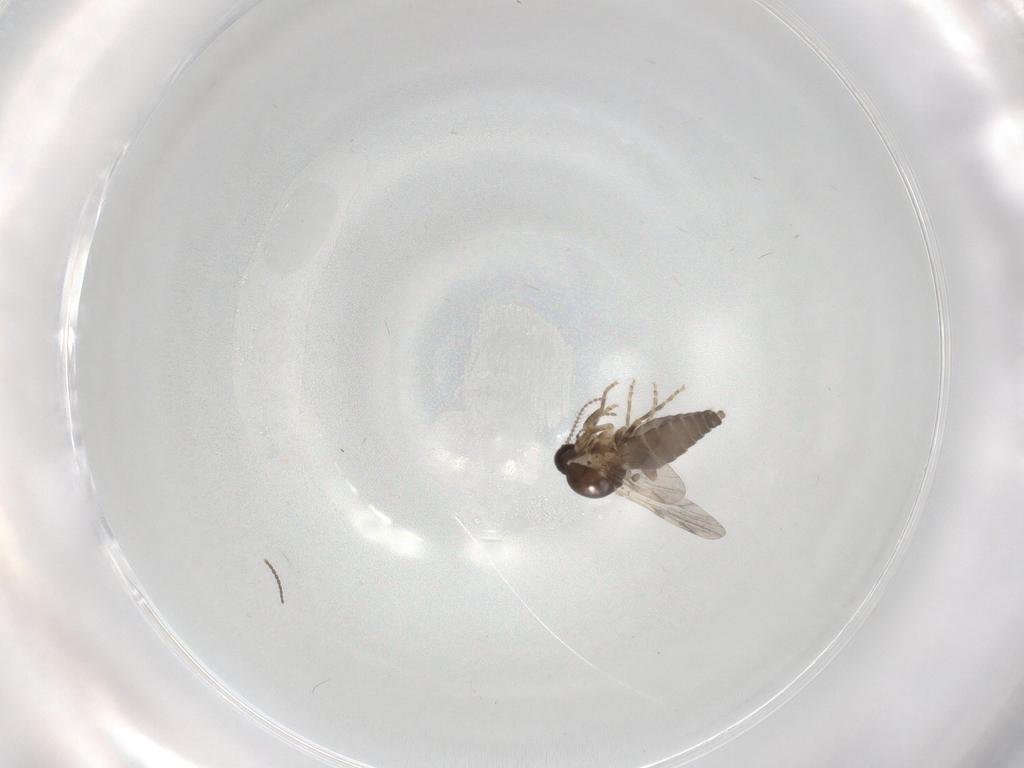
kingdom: Animalia
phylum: Arthropoda
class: Insecta
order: Diptera
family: Ceratopogonidae
